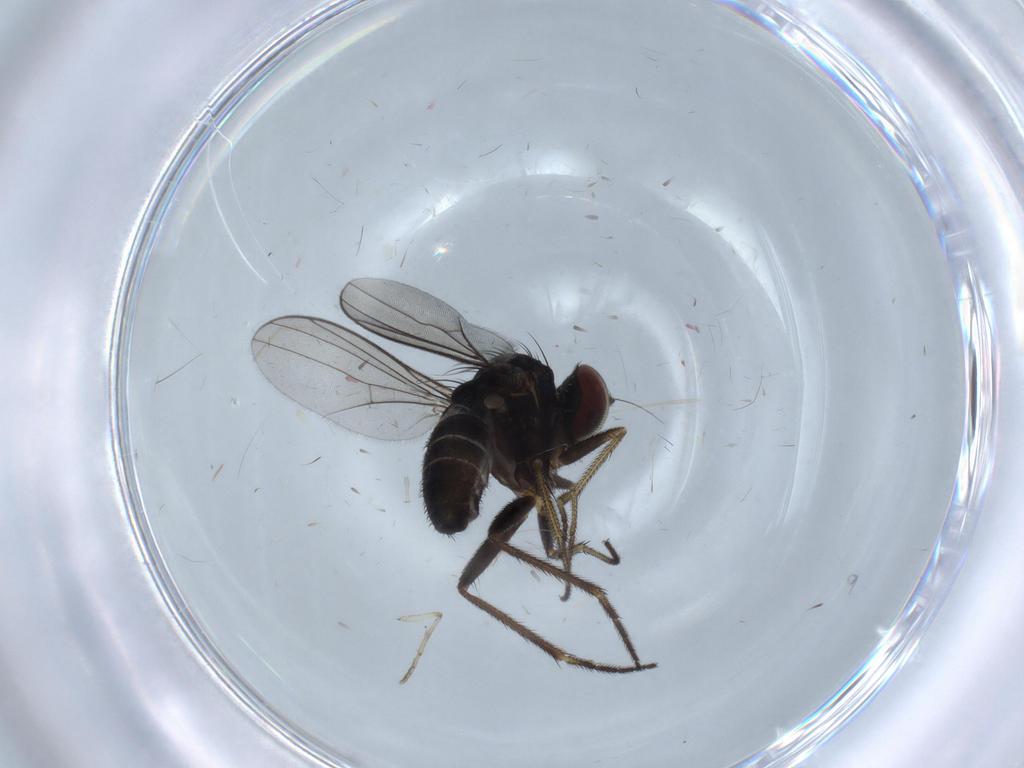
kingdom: Animalia
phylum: Arthropoda
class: Insecta
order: Diptera
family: Dolichopodidae
